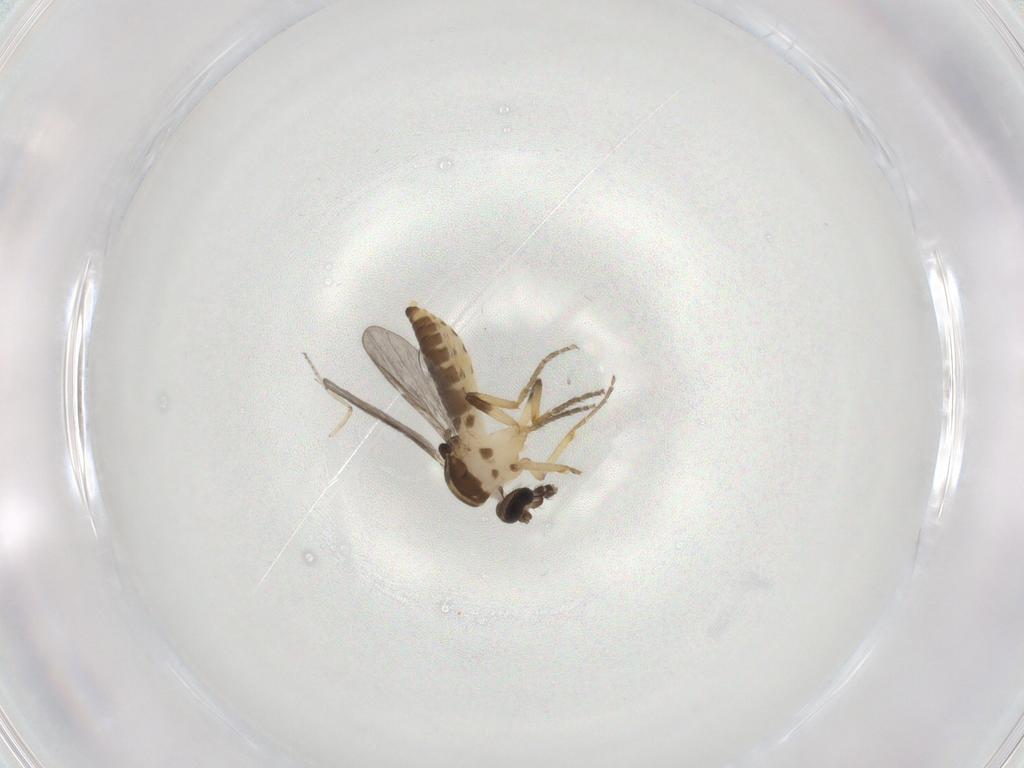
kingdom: Animalia
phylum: Arthropoda
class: Insecta
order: Diptera
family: Ceratopogonidae
